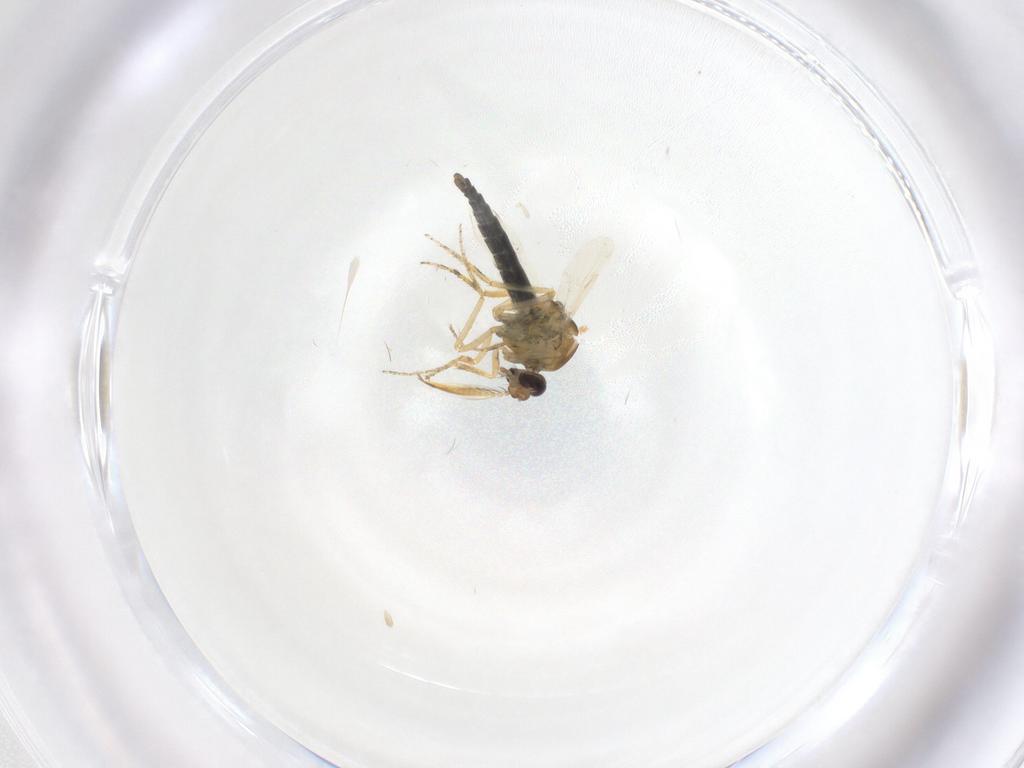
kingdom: Animalia
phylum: Arthropoda
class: Insecta
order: Diptera
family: Ceratopogonidae
